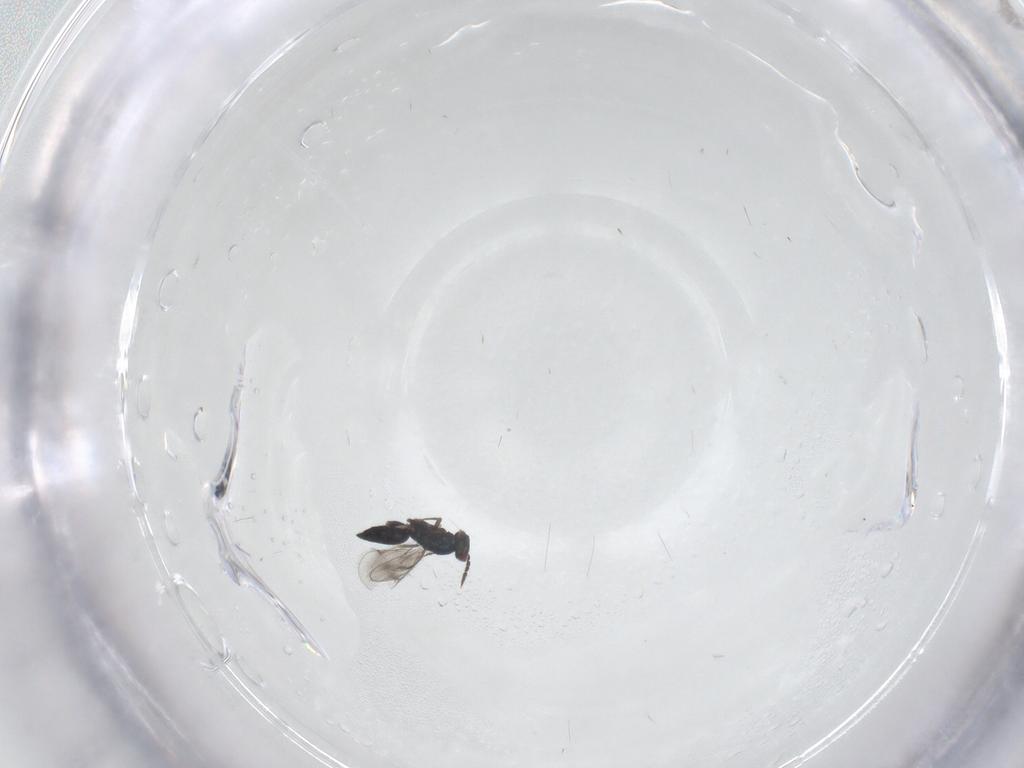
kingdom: Animalia
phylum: Arthropoda
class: Insecta
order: Hymenoptera
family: Eulophidae
